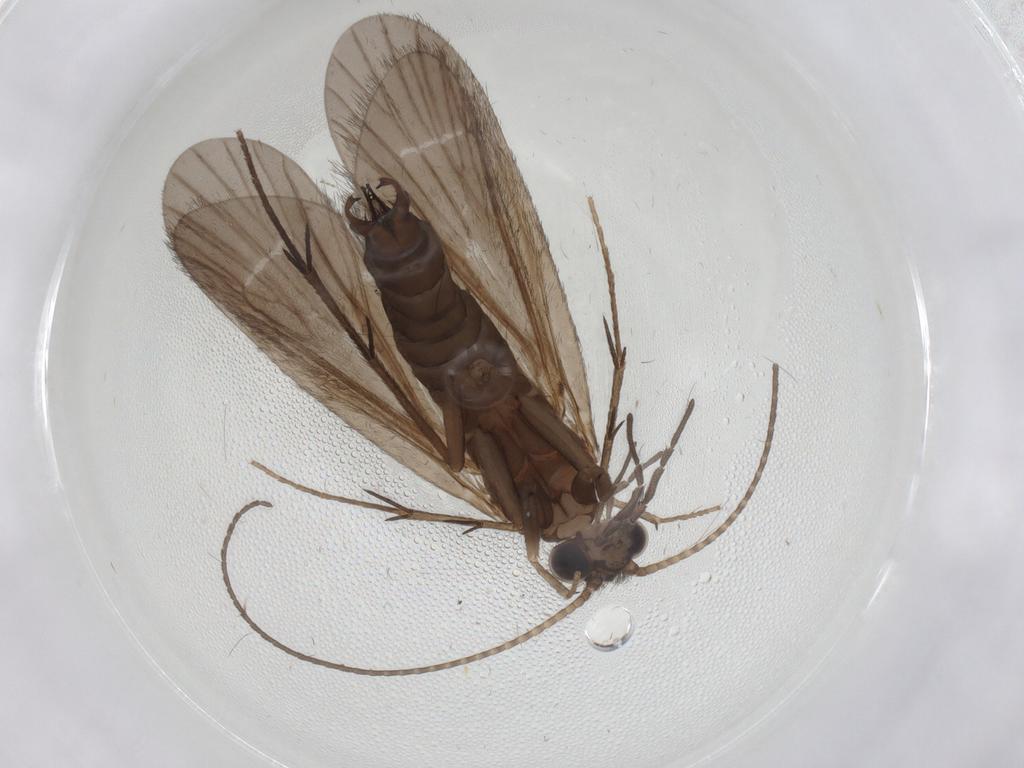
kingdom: Animalia
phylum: Arthropoda
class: Insecta
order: Trichoptera
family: Philopotamidae
